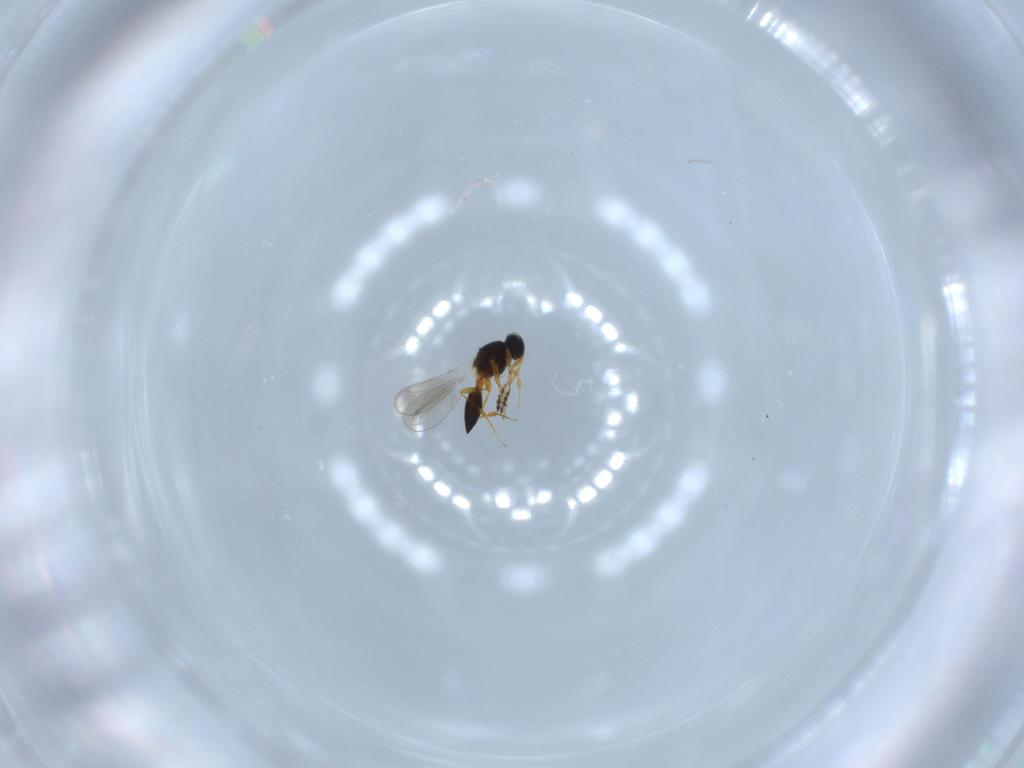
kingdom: Animalia
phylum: Arthropoda
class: Insecta
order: Hymenoptera
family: Platygastridae
